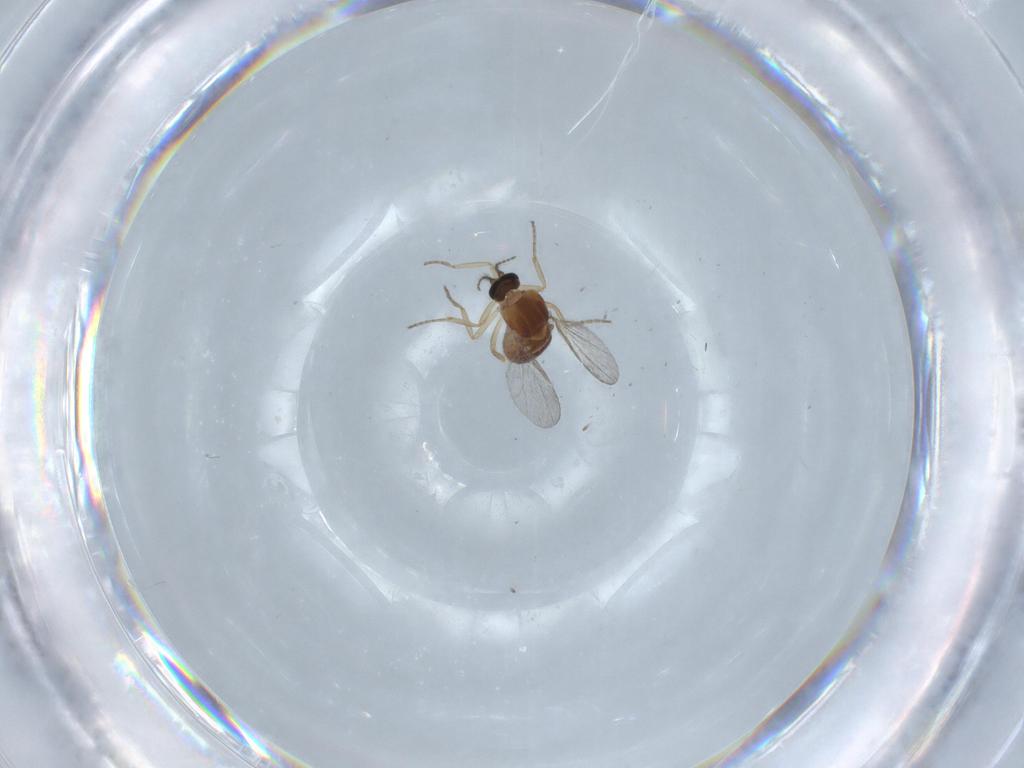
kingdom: Animalia
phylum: Arthropoda
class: Insecta
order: Diptera
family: Ceratopogonidae
